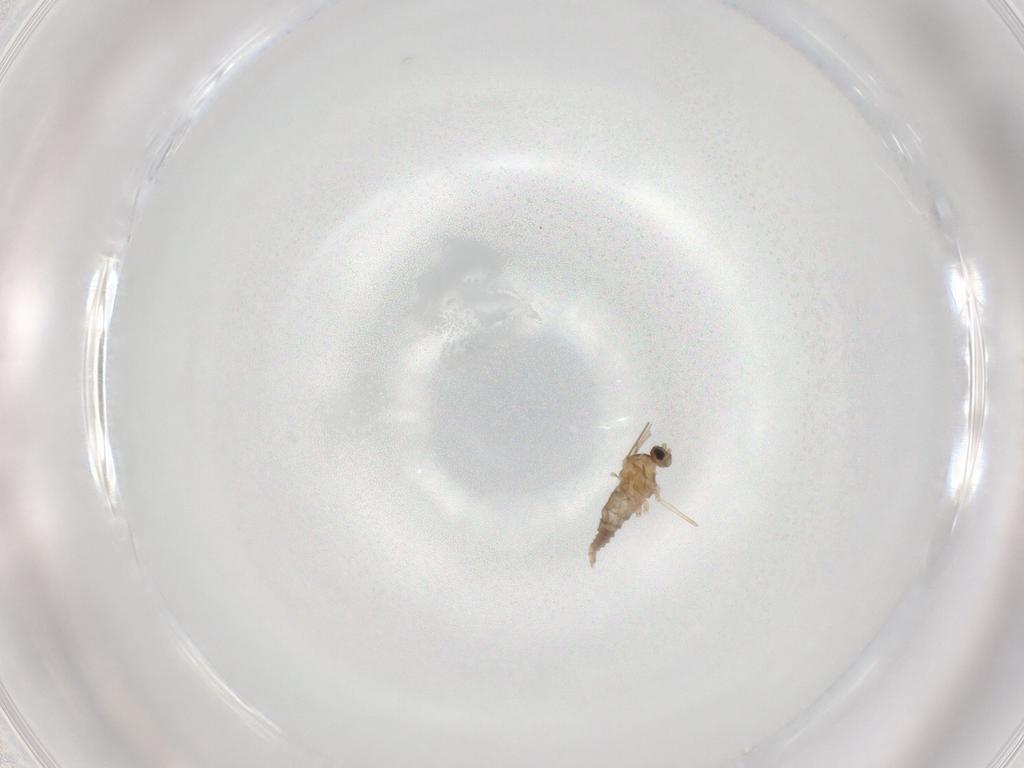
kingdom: Animalia
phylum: Arthropoda
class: Insecta
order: Diptera
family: Cecidomyiidae
